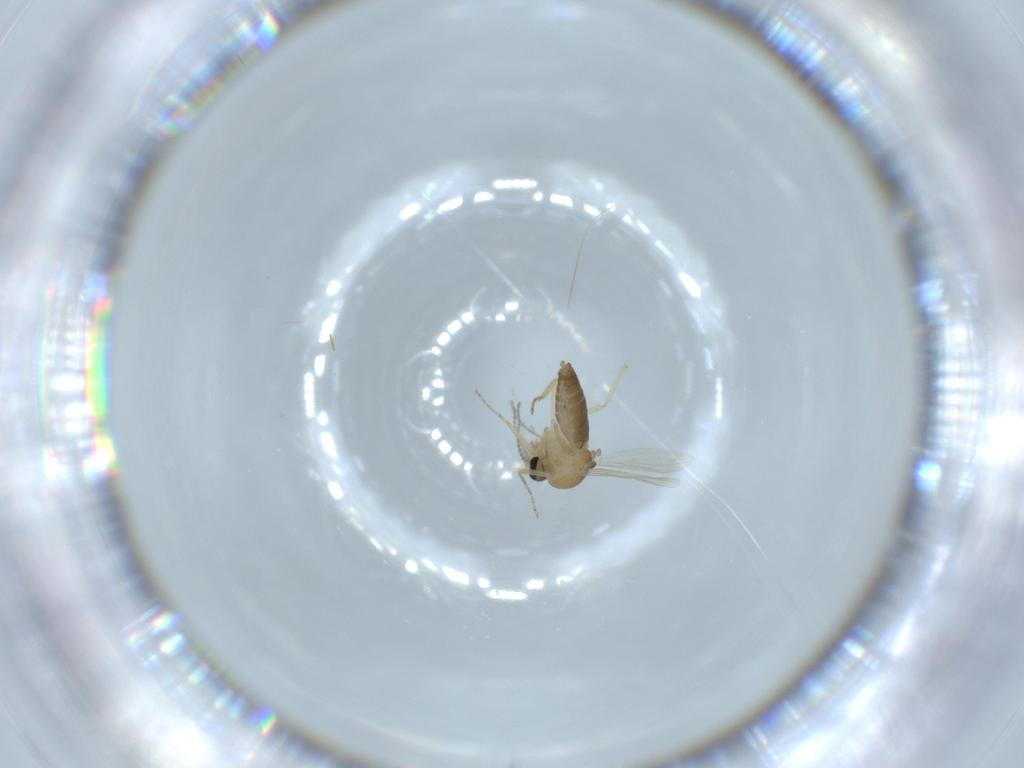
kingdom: Animalia
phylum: Arthropoda
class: Insecta
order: Diptera
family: Ceratopogonidae
